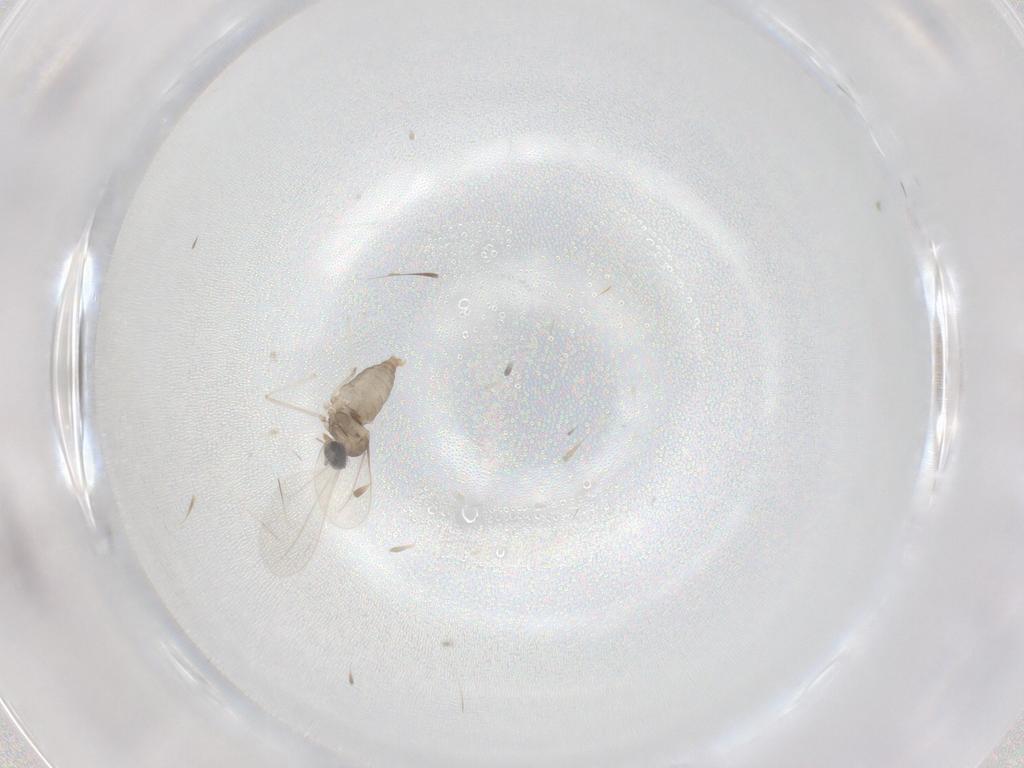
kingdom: Animalia
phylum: Arthropoda
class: Insecta
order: Diptera
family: Cecidomyiidae
